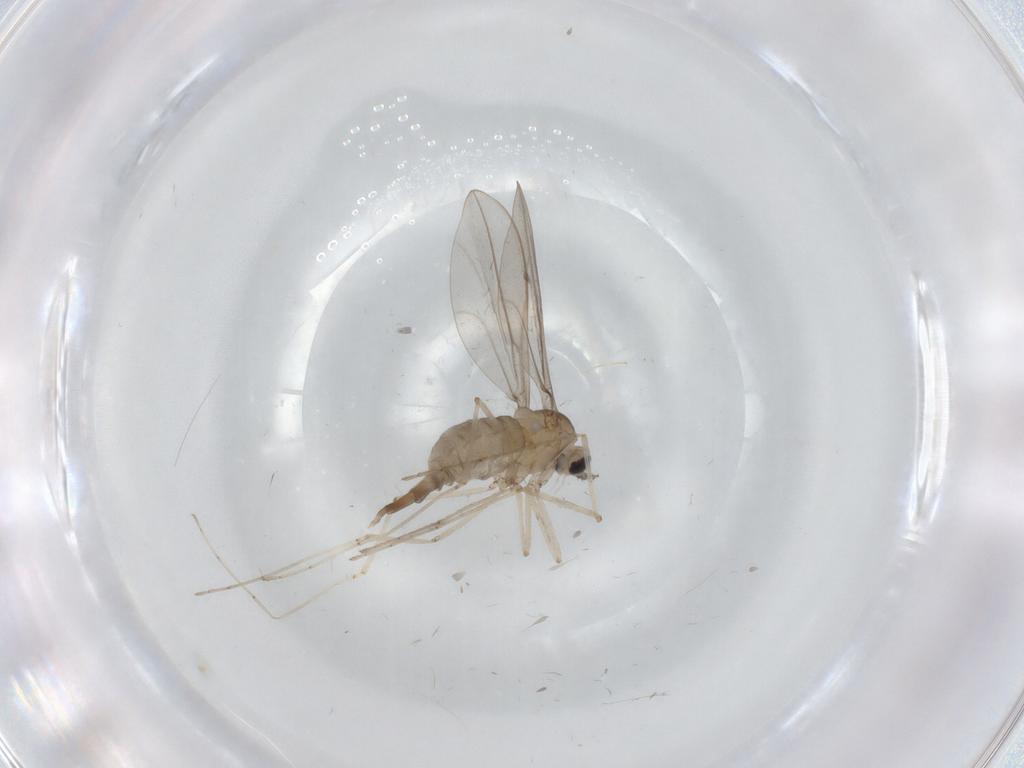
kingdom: Animalia
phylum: Arthropoda
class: Insecta
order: Diptera
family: Cecidomyiidae
